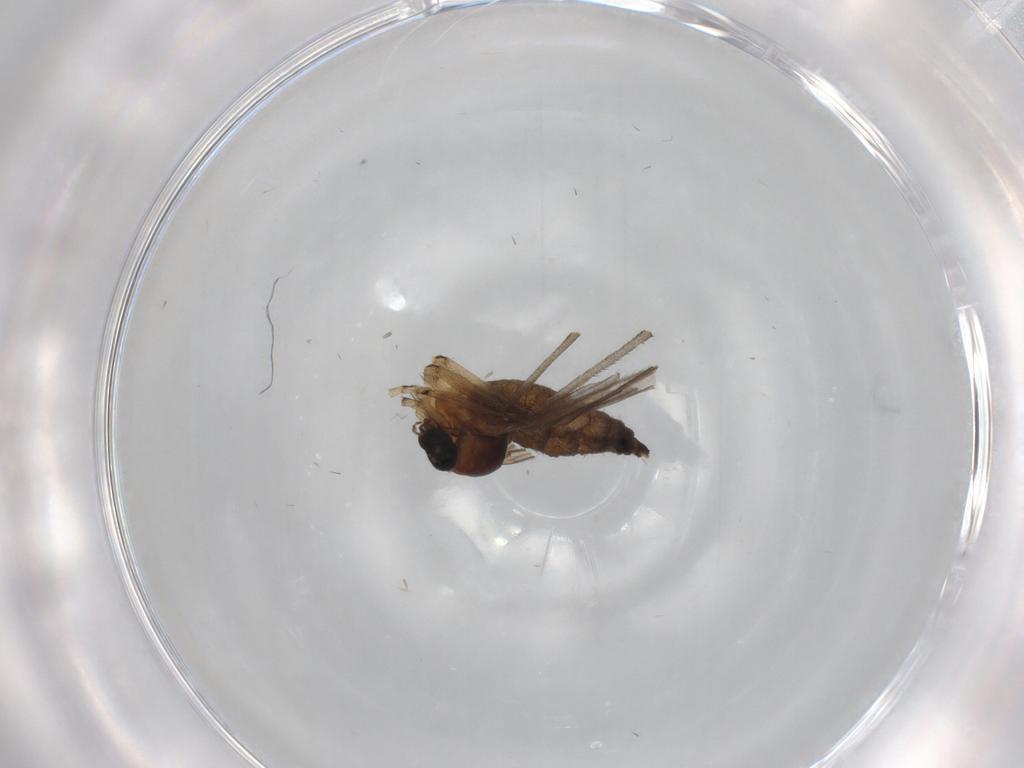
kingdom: Animalia
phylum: Arthropoda
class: Insecta
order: Diptera
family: Sciaridae
